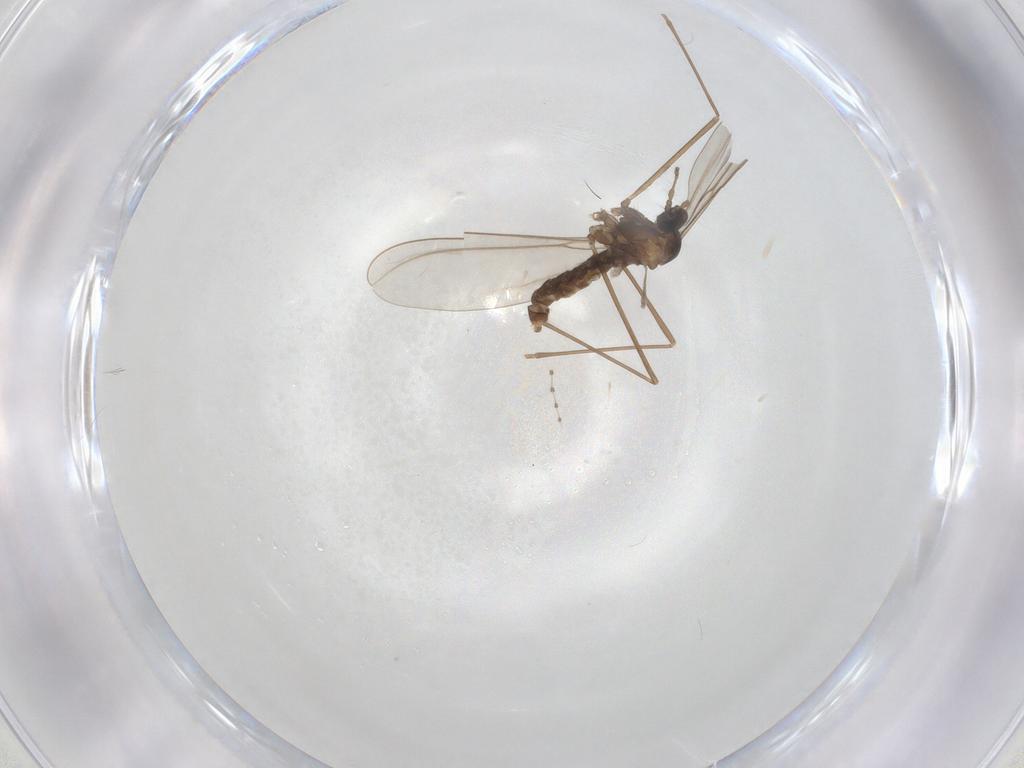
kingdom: Animalia
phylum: Arthropoda
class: Insecta
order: Diptera
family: Cecidomyiidae
